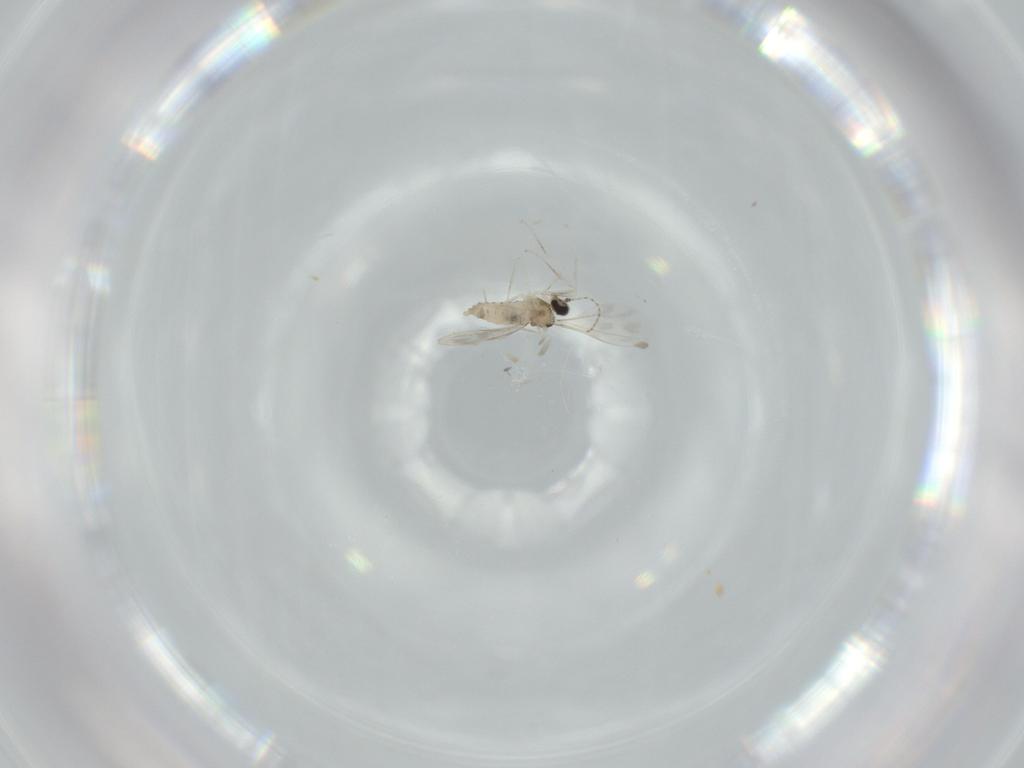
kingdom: Animalia
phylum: Arthropoda
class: Insecta
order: Diptera
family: Cecidomyiidae
